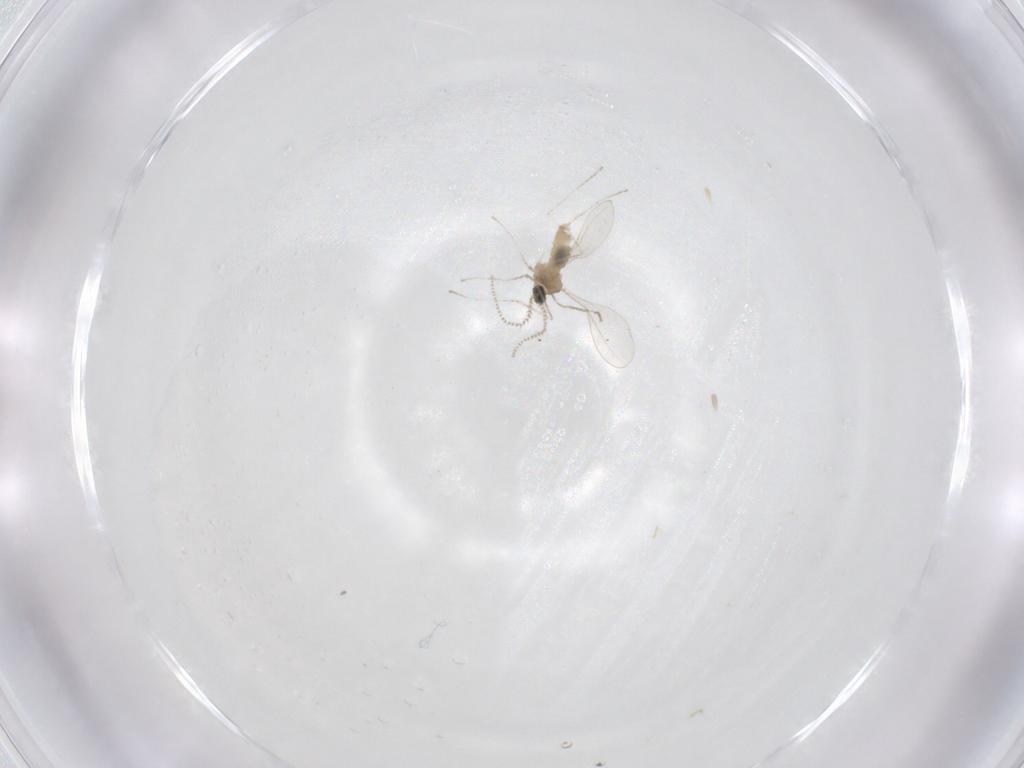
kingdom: Animalia
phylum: Arthropoda
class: Insecta
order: Diptera
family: Cecidomyiidae
